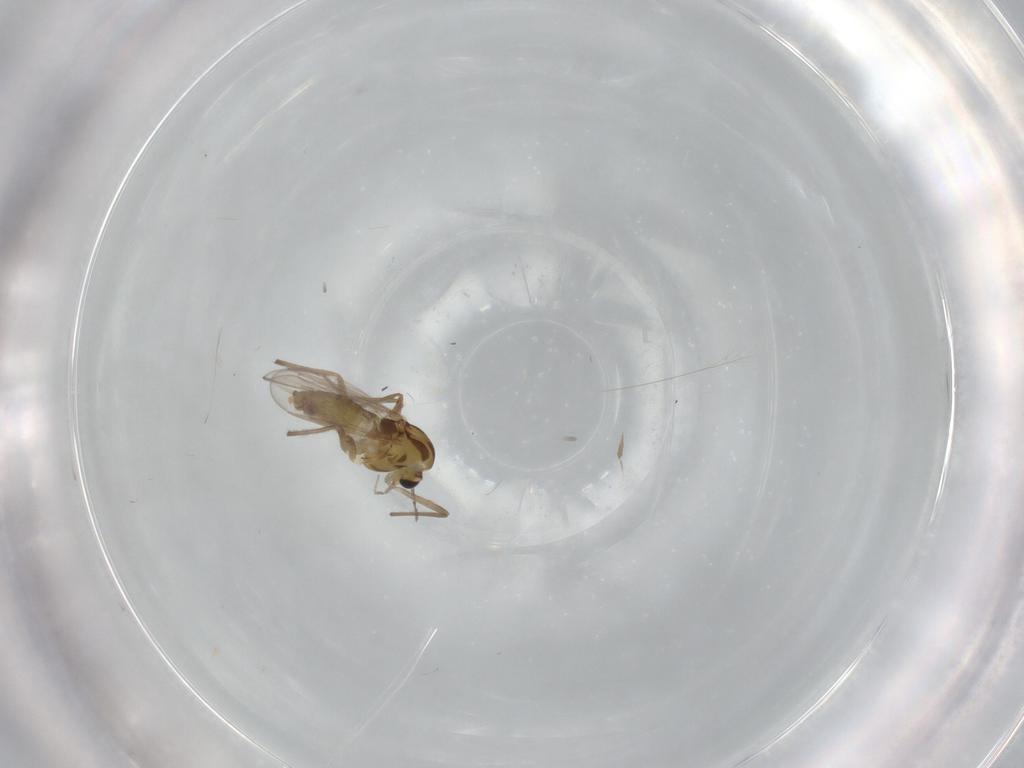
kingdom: Animalia
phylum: Arthropoda
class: Insecta
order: Diptera
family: Chironomidae
